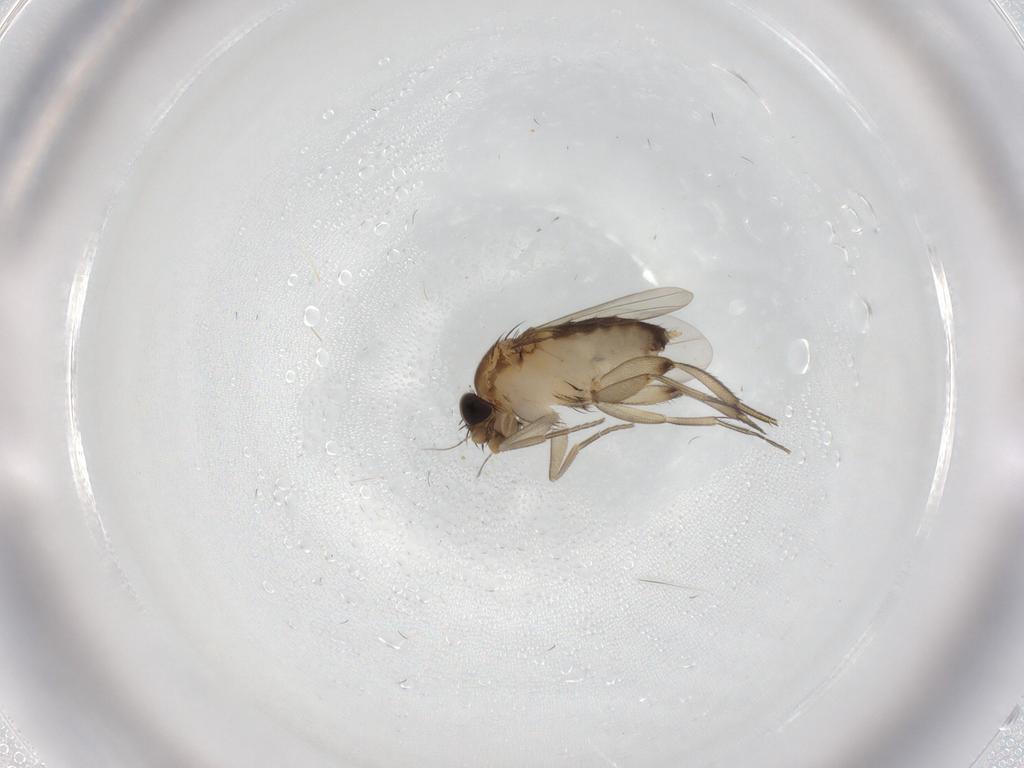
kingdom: Animalia
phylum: Arthropoda
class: Insecta
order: Diptera
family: Phoridae
